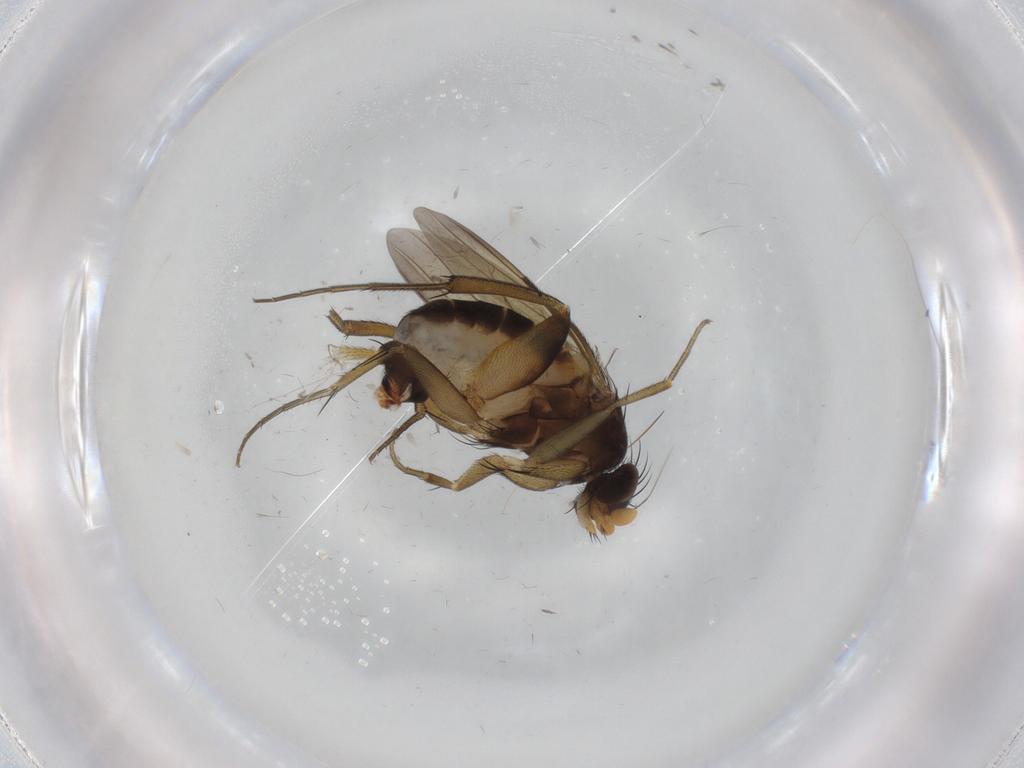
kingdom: Animalia
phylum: Arthropoda
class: Insecta
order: Diptera
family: Phoridae
